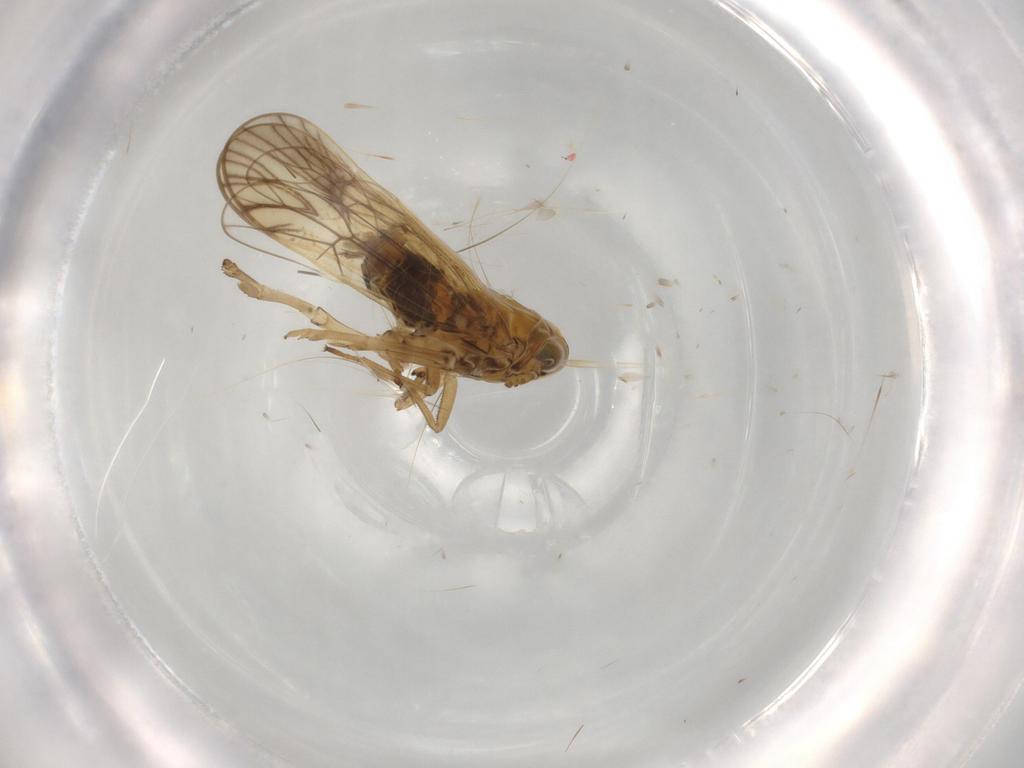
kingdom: Animalia
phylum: Arthropoda
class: Insecta
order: Hemiptera
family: Delphacidae
